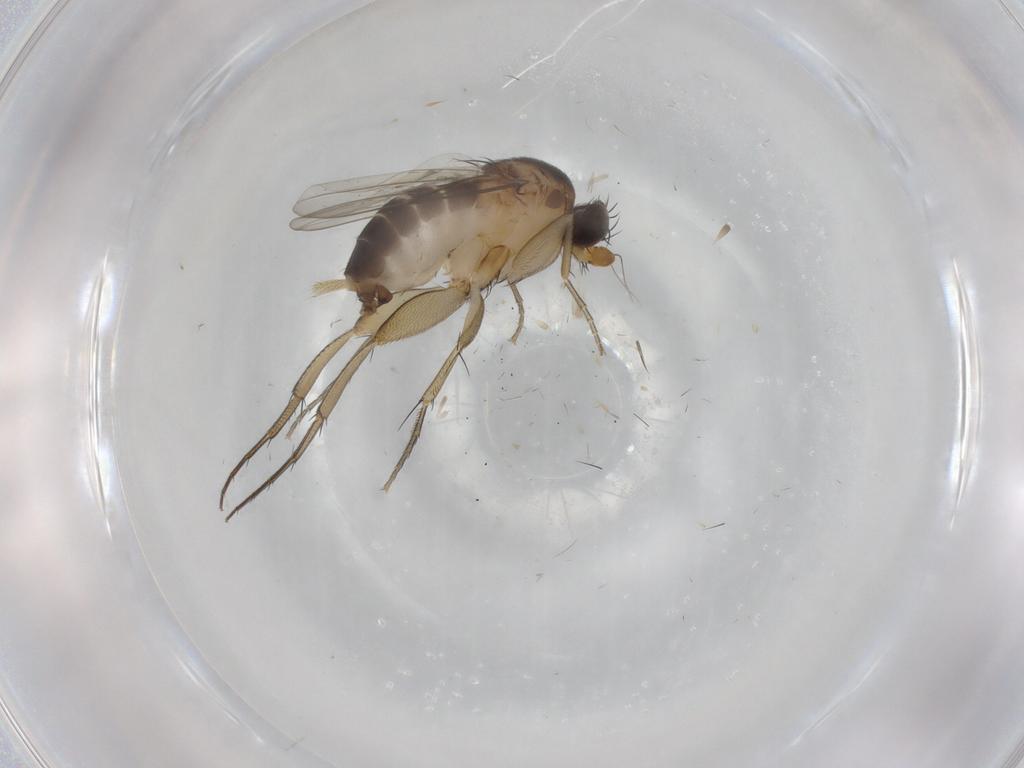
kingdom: Animalia
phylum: Arthropoda
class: Insecta
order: Diptera
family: Phoridae
